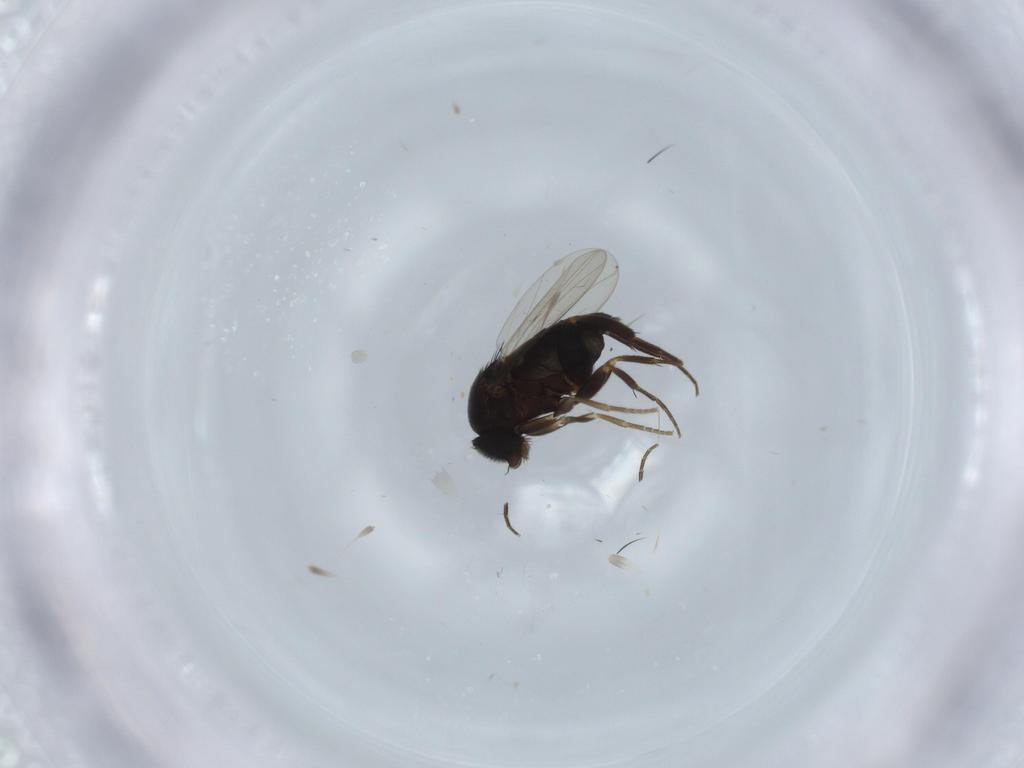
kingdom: Animalia
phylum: Arthropoda
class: Insecta
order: Diptera
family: Phoridae
